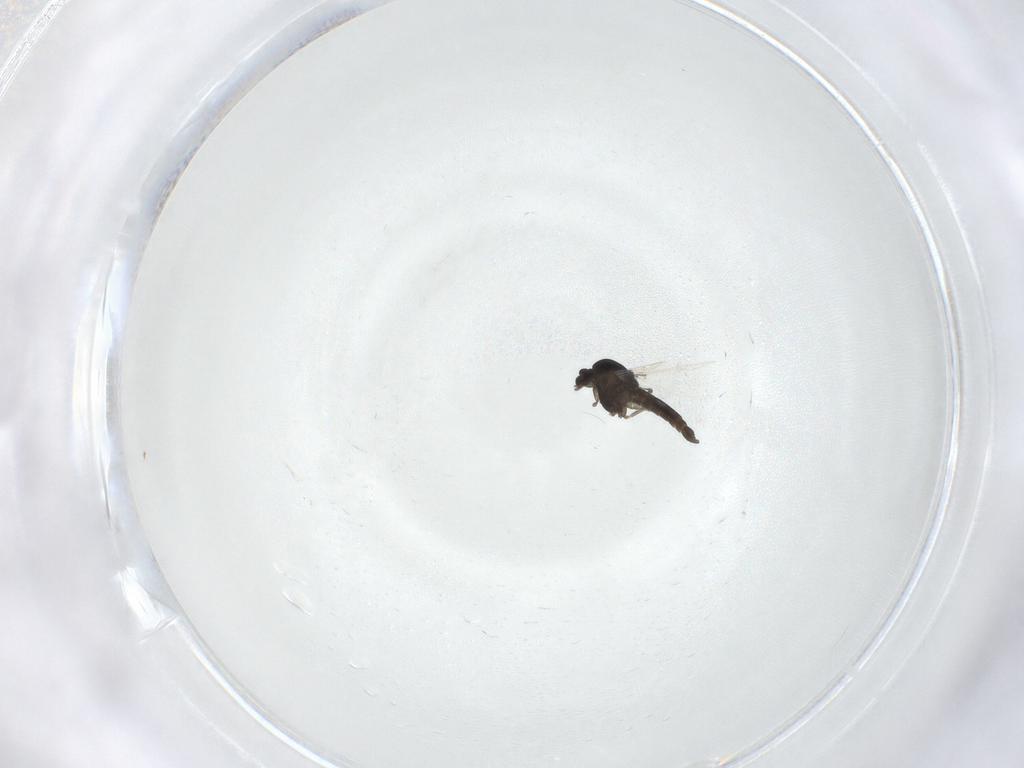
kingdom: Animalia
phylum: Arthropoda
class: Insecta
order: Diptera
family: Chironomidae
